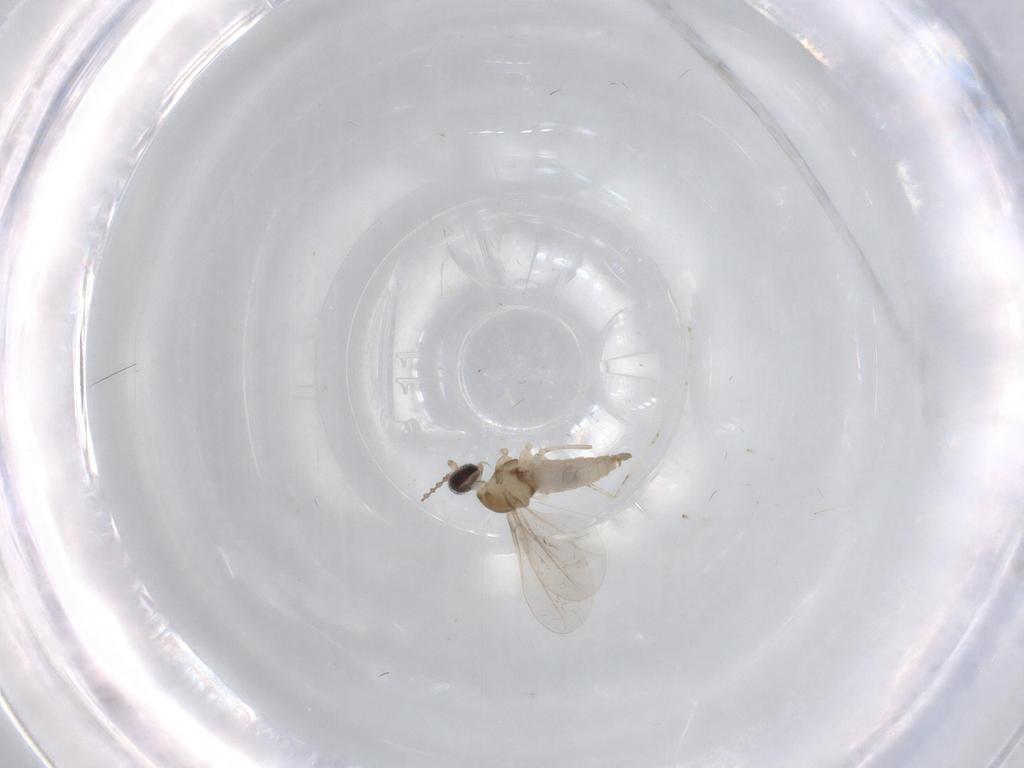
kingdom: Animalia
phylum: Arthropoda
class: Insecta
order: Diptera
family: Cecidomyiidae
